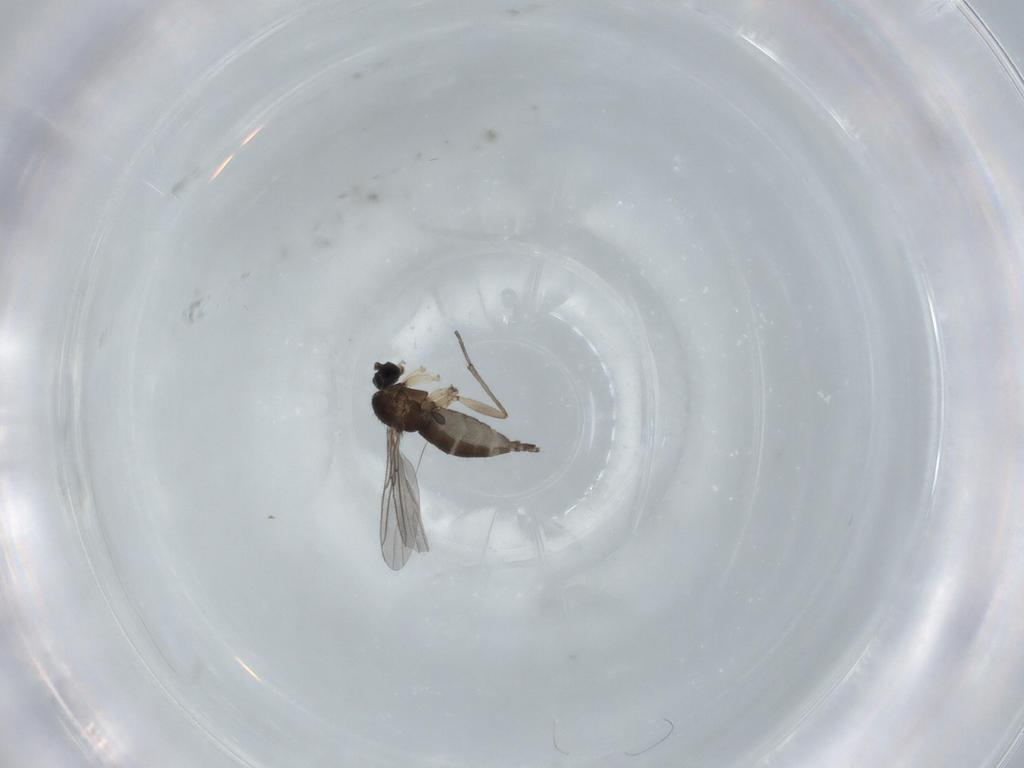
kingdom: Animalia
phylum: Arthropoda
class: Insecta
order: Diptera
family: Sciaridae
